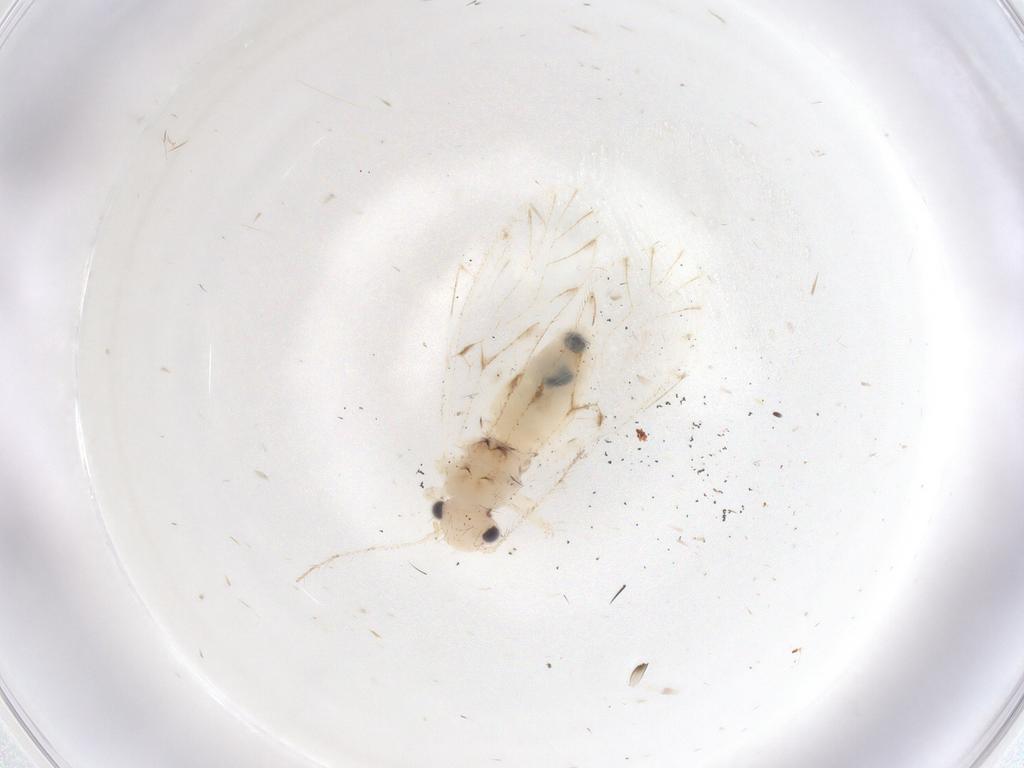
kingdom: Animalia
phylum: Arthropoda
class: Insecta
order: Psocodea
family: Trichopsocidae
